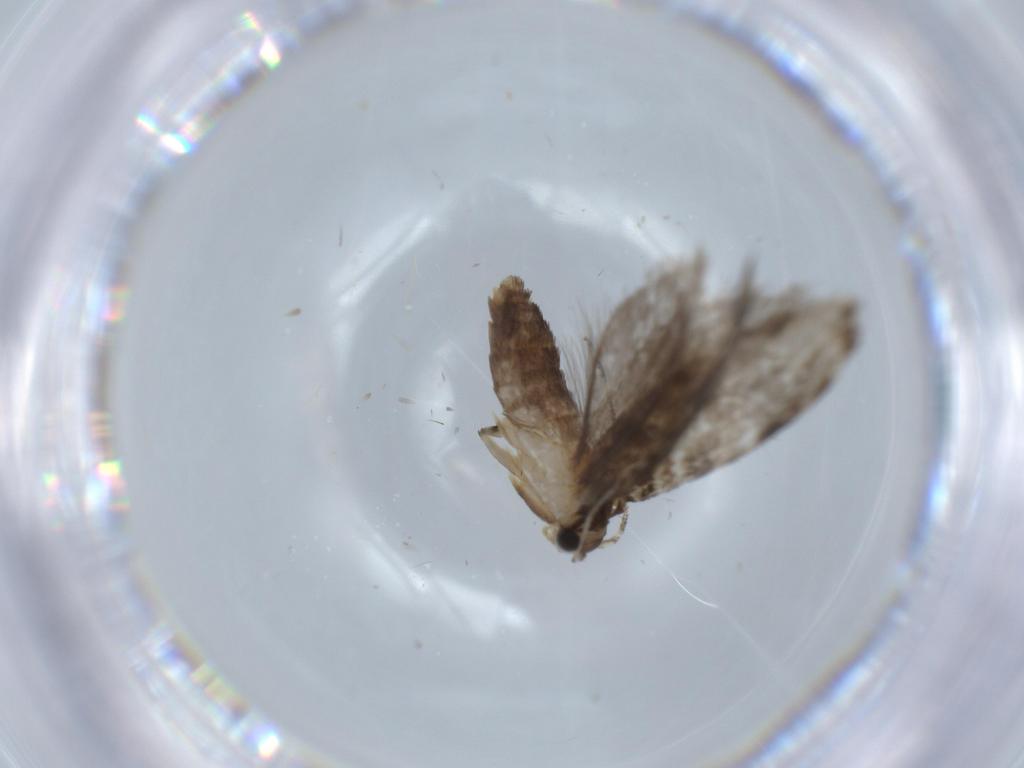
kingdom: Animalia
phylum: Arthropoda
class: Insecta
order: Lepidoptera
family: Tineidae
